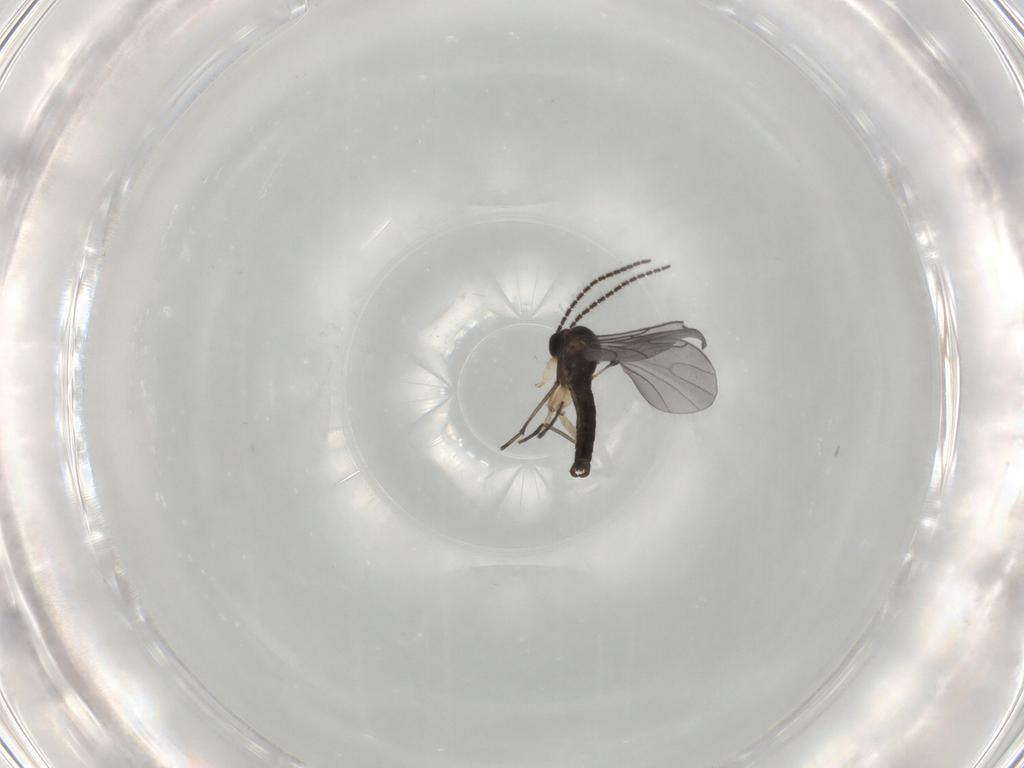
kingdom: Animalia
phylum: Arthropoda
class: Insecta
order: Diptera
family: Sciaridae
